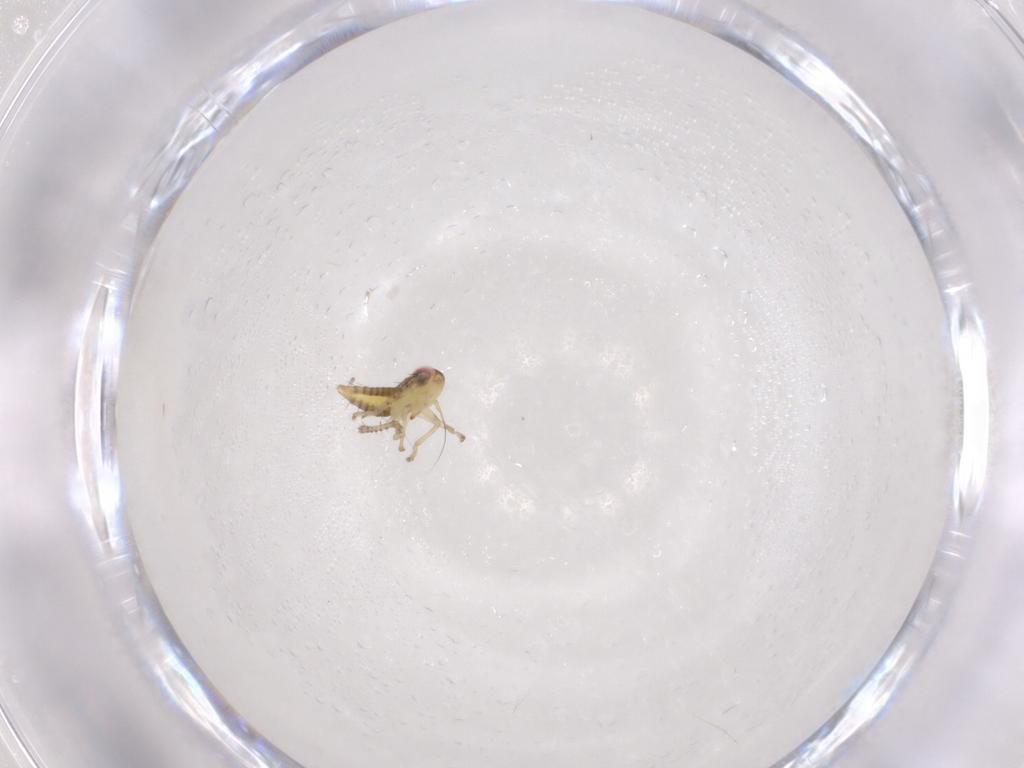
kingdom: Animalia
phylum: Arthropoda
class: Insecta
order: Hemiptera
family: Cicadellidae
